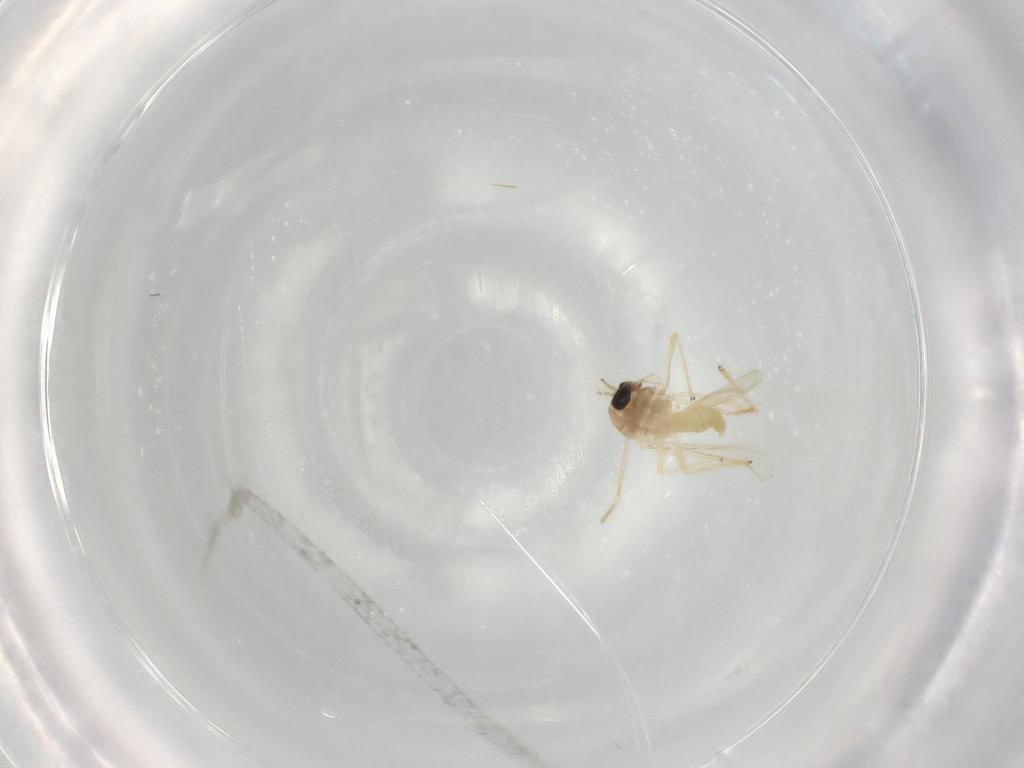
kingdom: Animalia
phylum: Arthropoda
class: Insecta
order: Diptera
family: Chironomidae
